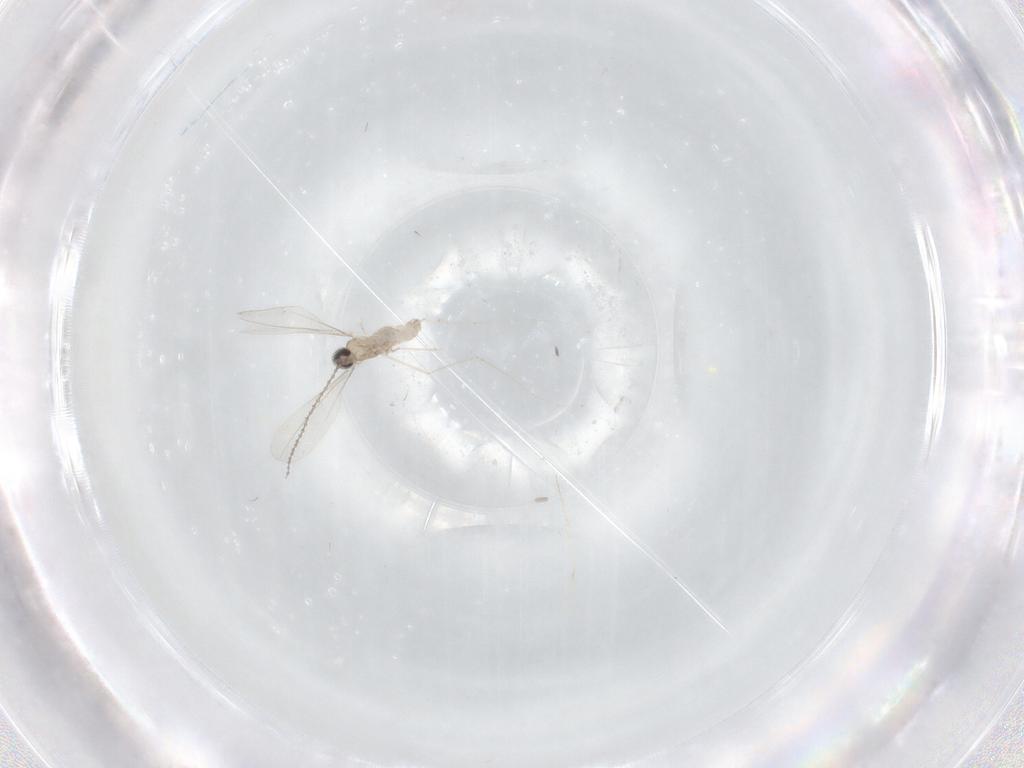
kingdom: Animalia
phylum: Arthropoda
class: Insecta
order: Diptera
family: Cecidomyiidae
